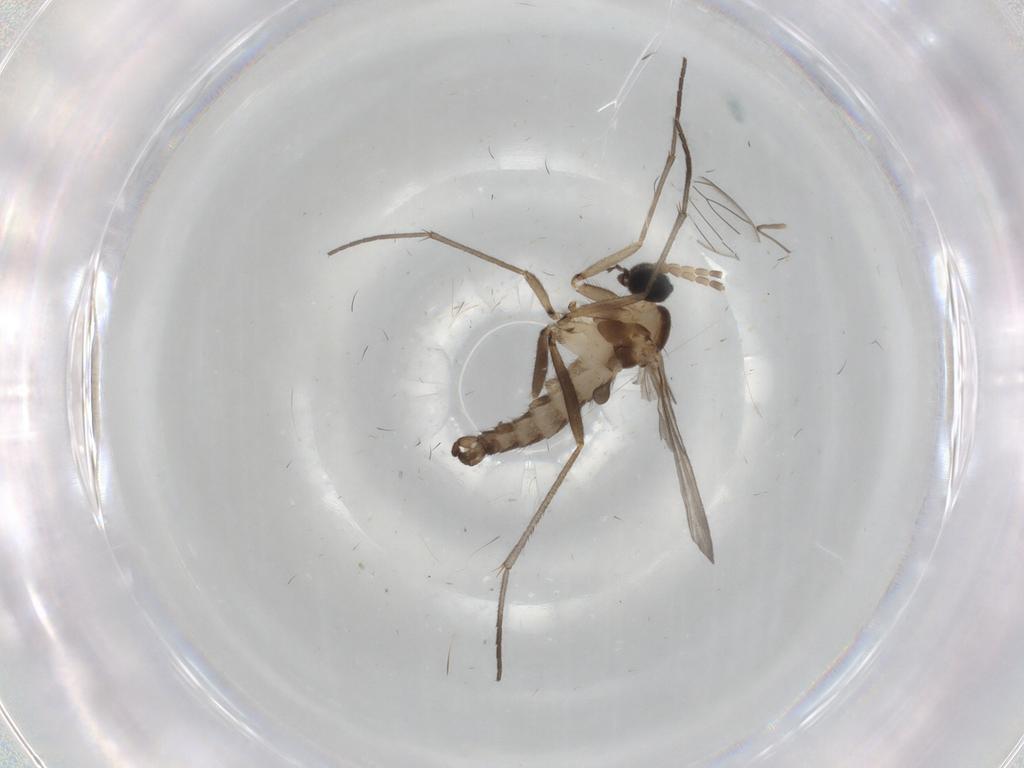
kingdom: Animalia
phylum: Arthropoda
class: Insecta
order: Diptera
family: Sciaridae
